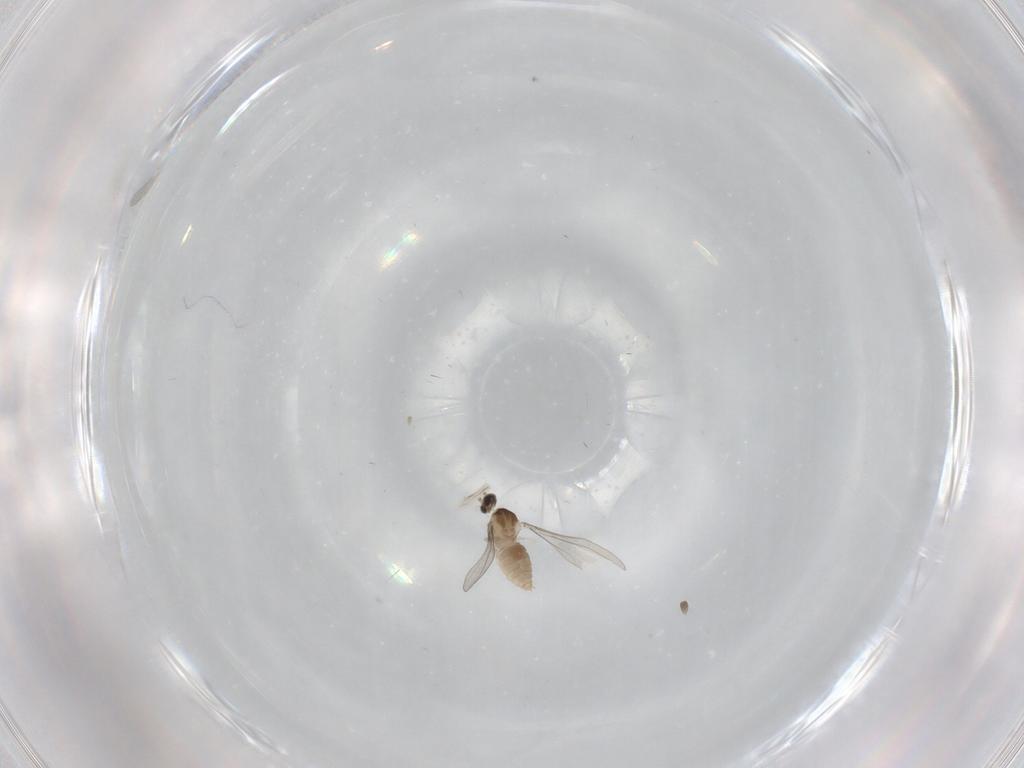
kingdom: Animalia
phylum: Arthropoda
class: Insecta
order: Diptera
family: Cecidomyiidae
